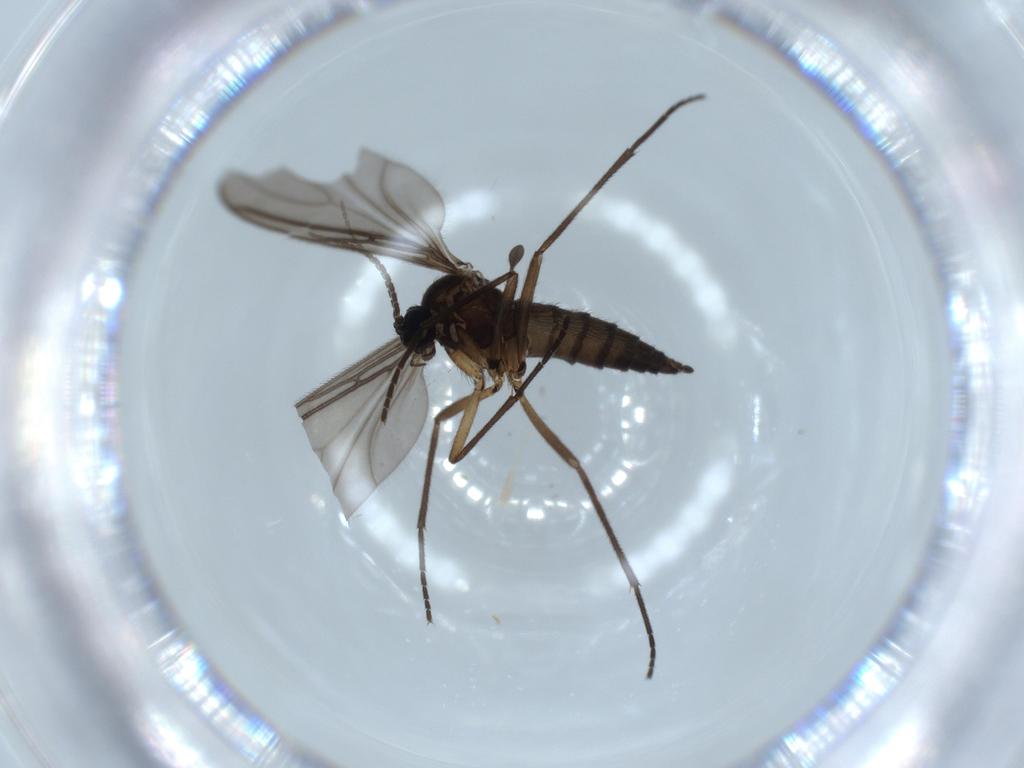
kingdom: Animalia
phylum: Arthropoda
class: Insecta
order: Diptera
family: Sciaridae
